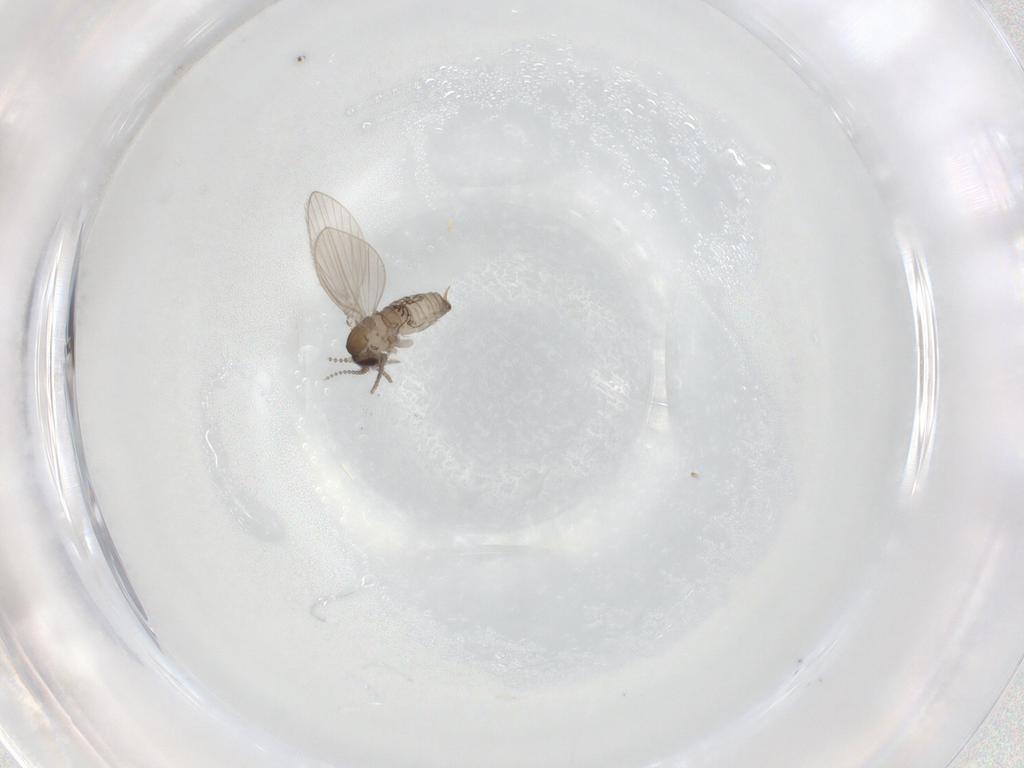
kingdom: Animalia
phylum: Arthropoda
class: Insecta
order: Diptera
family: Psychodidae
